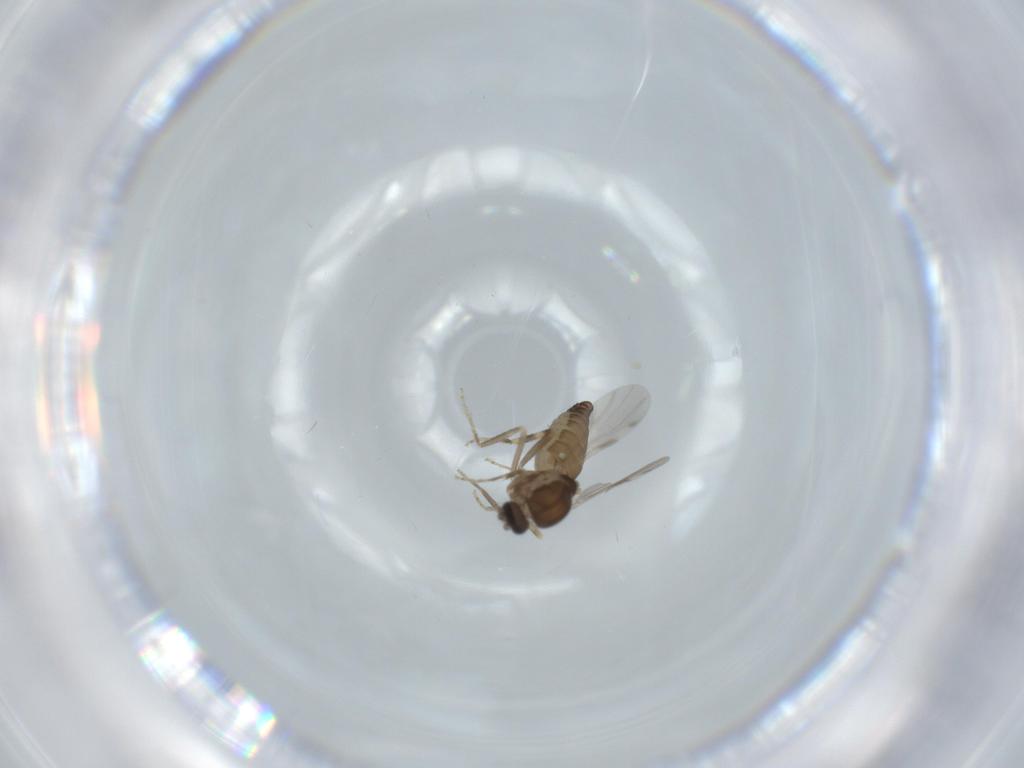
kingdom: Animalia
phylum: Arthropoda
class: Insecta
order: Diptera
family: Ceratopogonidae
